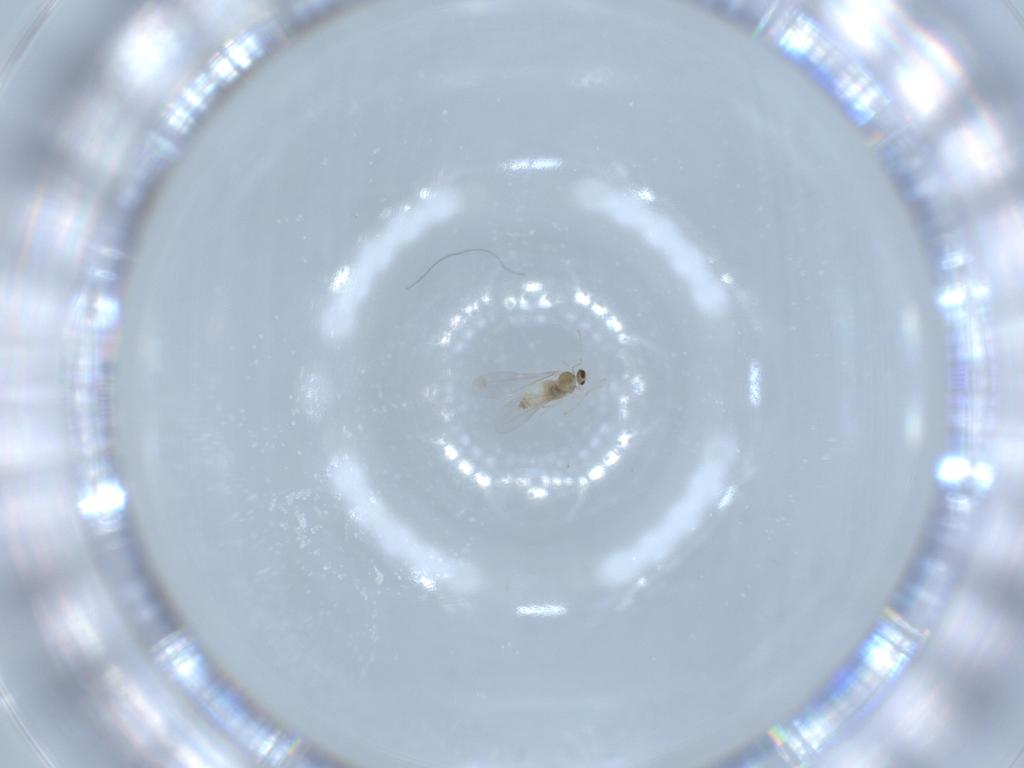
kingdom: Animalia
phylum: Arthropoda
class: Insecta
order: Diptera
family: Cecidomyiidae
